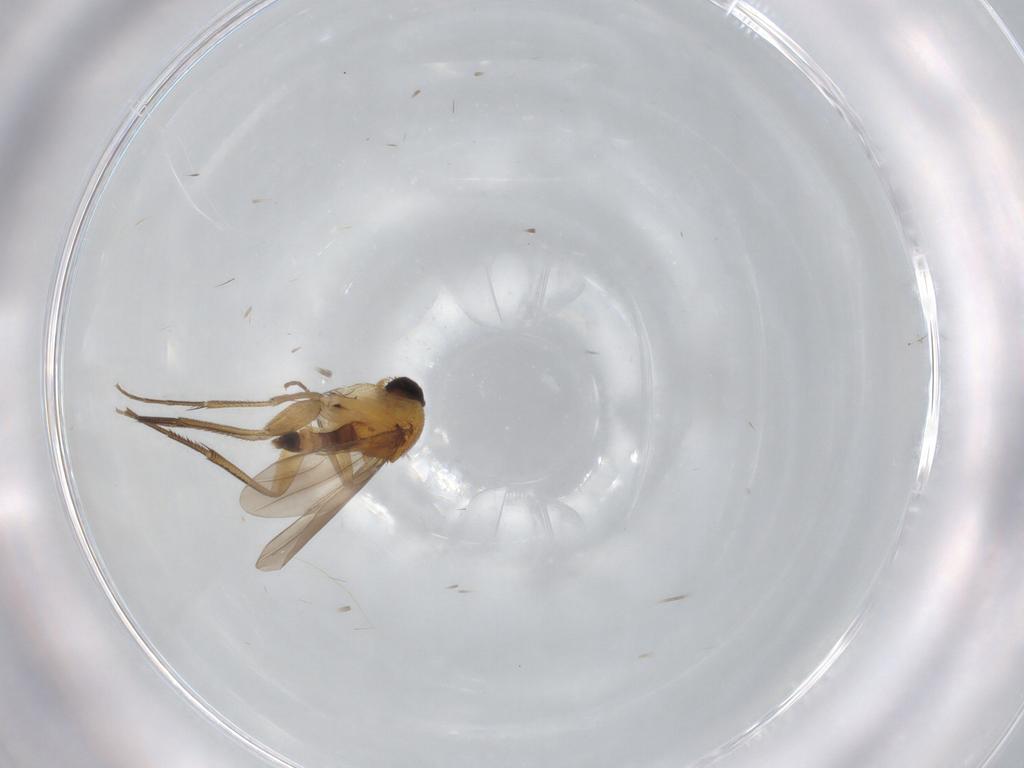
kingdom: Animalia
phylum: Arthropoda
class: Insecta
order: Diptera
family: Phoridae
